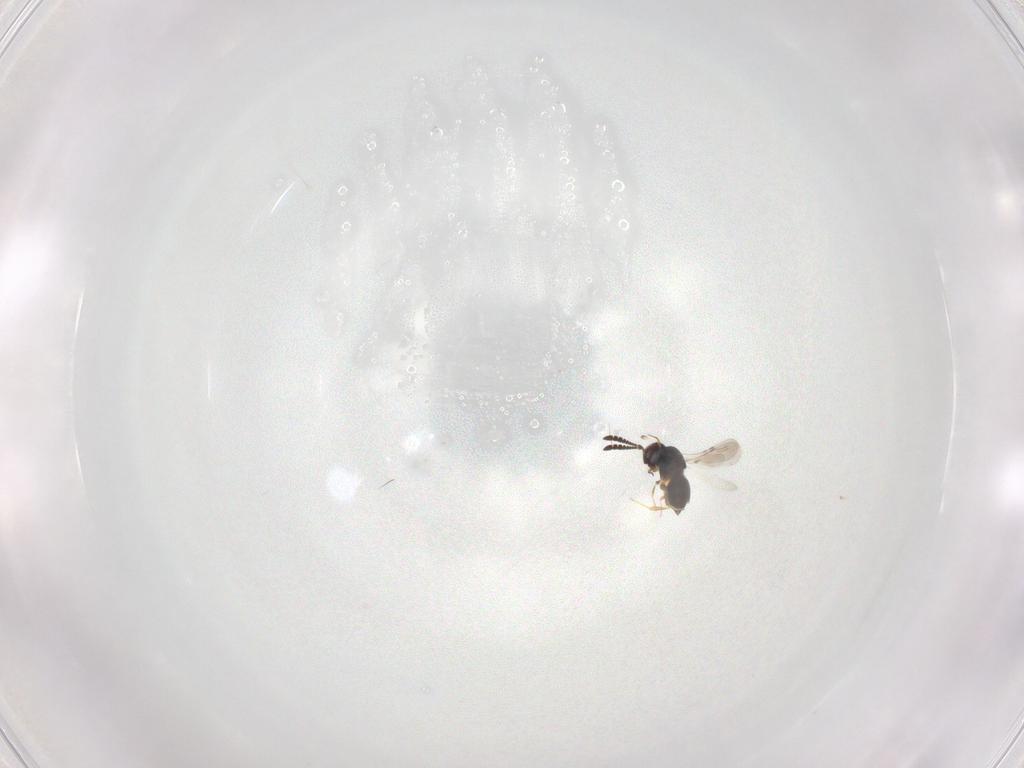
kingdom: Animalia
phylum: Arthropoda
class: Insecta
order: Hymenoptera
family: Ceraphronidae
